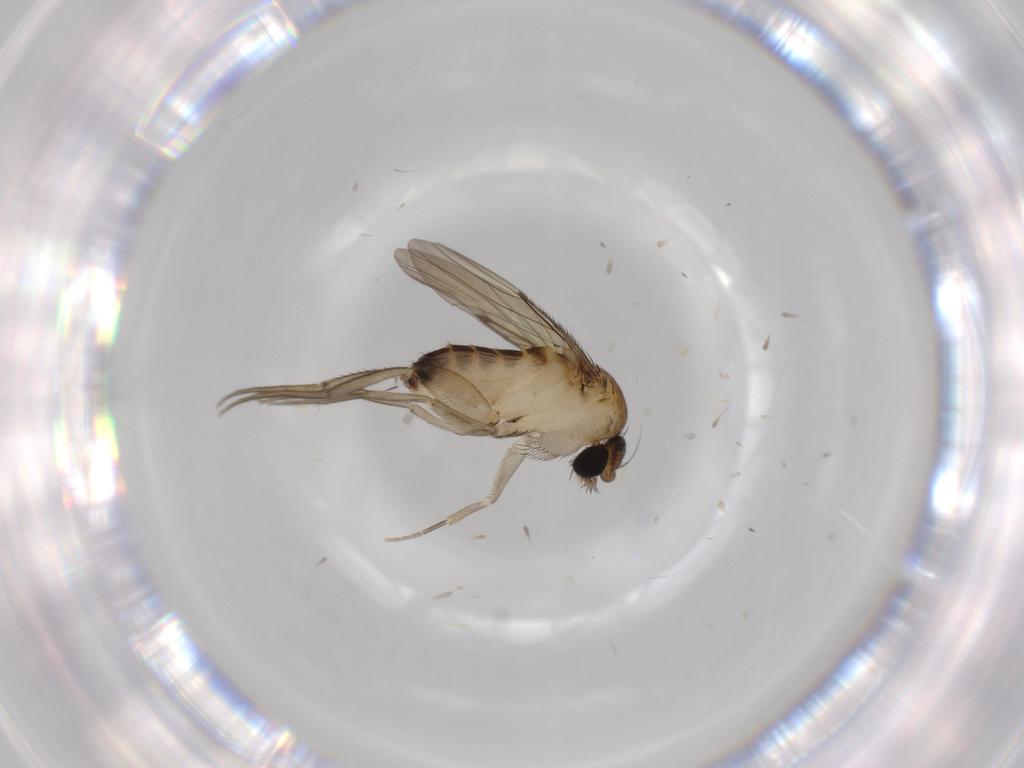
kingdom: Animalia
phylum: Arthropoda
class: Insecta
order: Diptera
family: Phoridae
